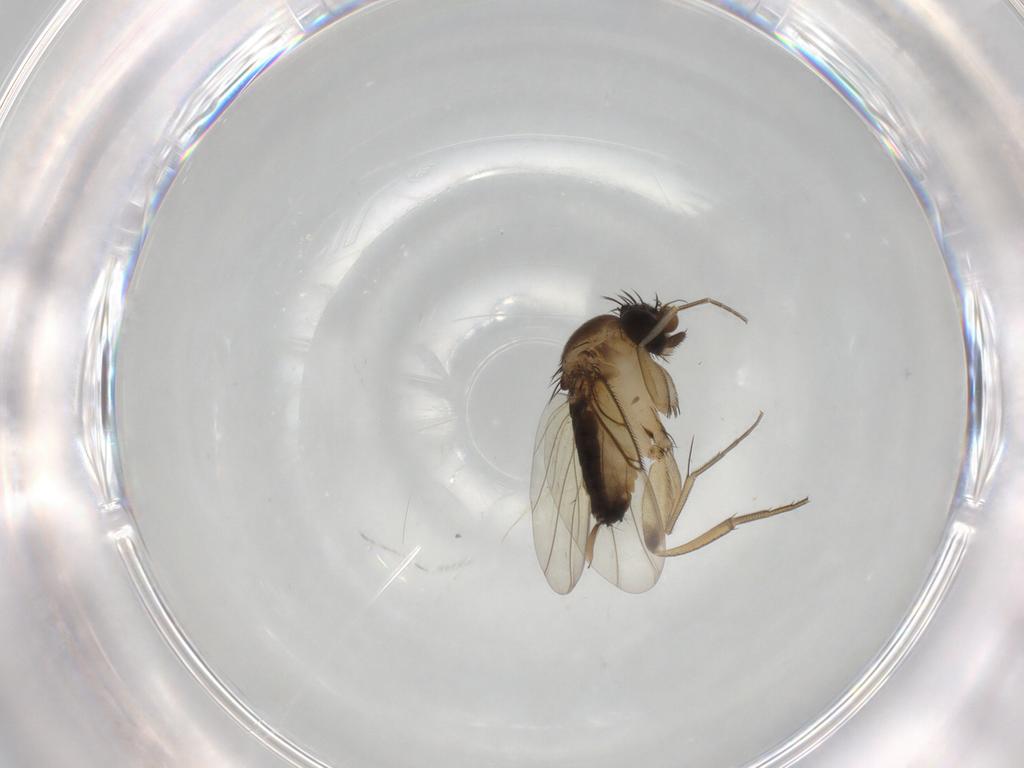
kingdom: Animalia
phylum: Arthropoda
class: Insecta
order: Diptera
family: Phoridae
